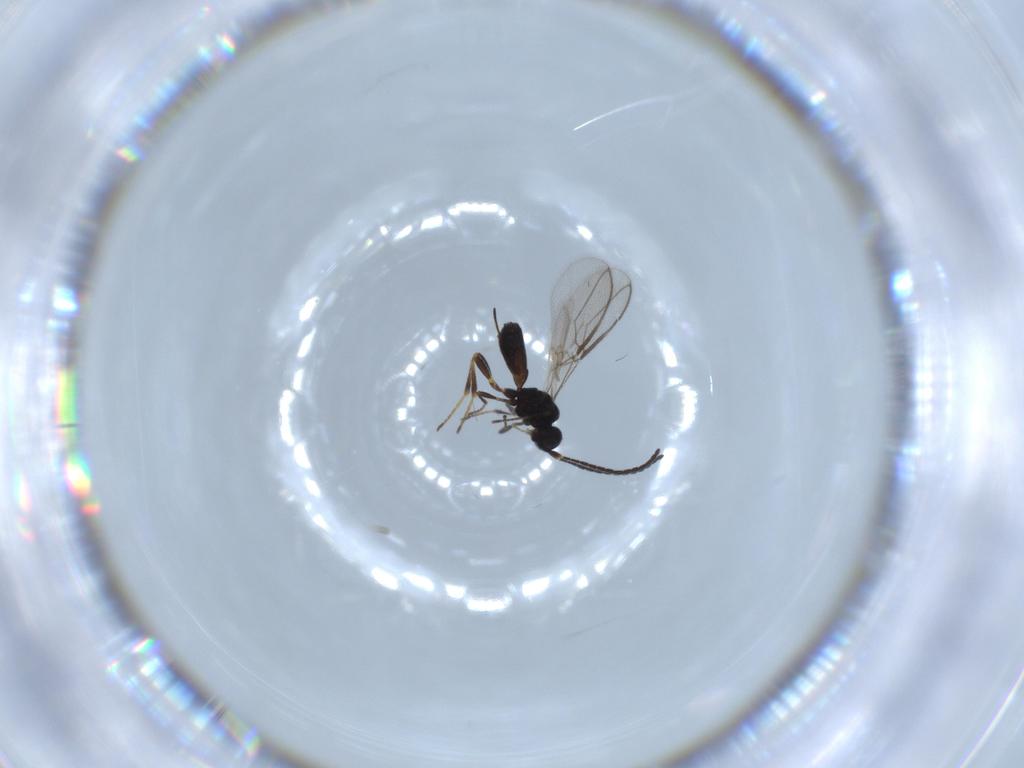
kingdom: Animalia
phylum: Arthropoda
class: Insecta
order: Hymenoptera
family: Braconidae
